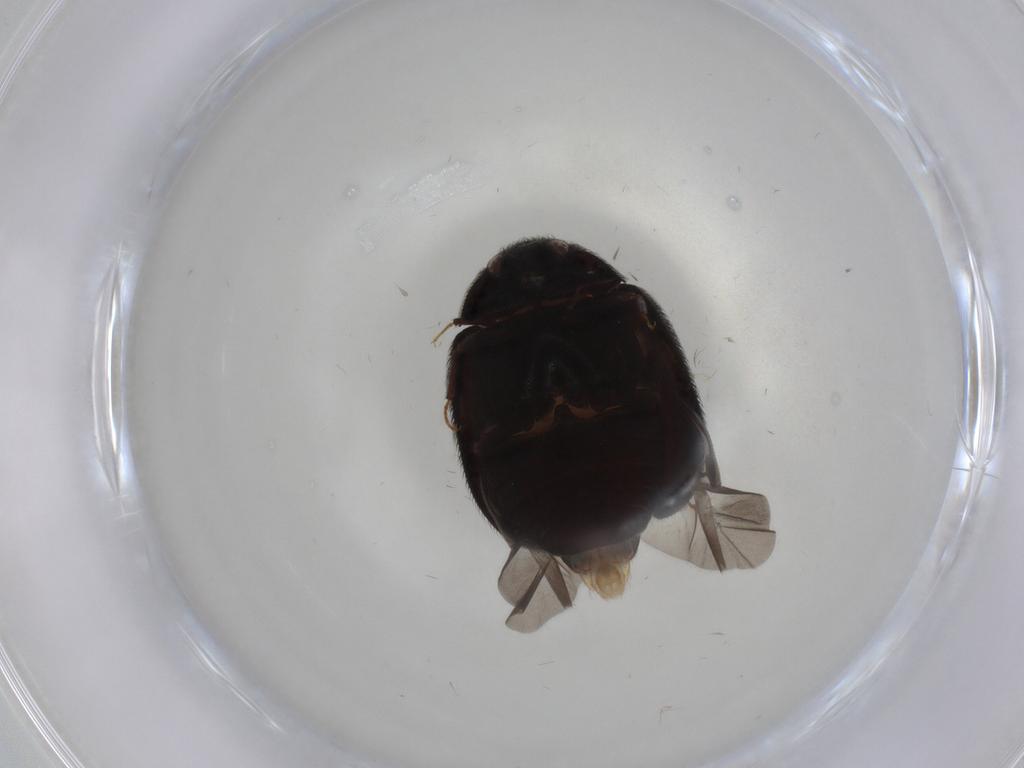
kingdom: Animalia
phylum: Arthropoda
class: Insecta
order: Coleoptera
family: Dermestidae
